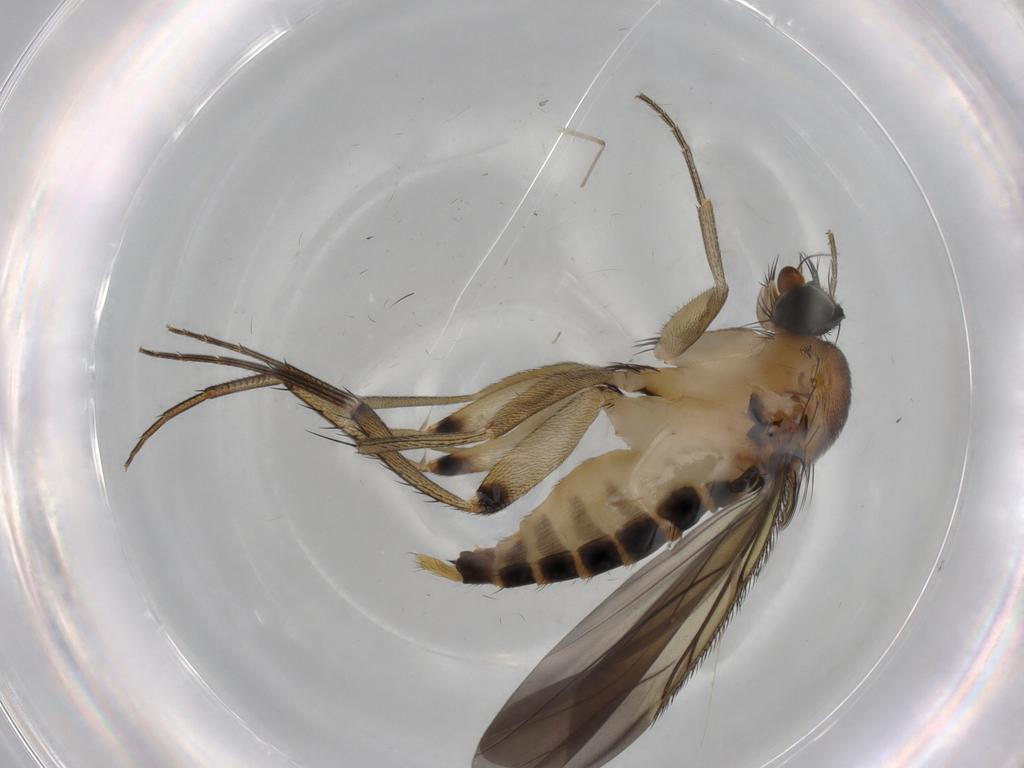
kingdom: Animalia
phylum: Arthropoda
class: Insecta
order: Diptera
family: Phoridae
